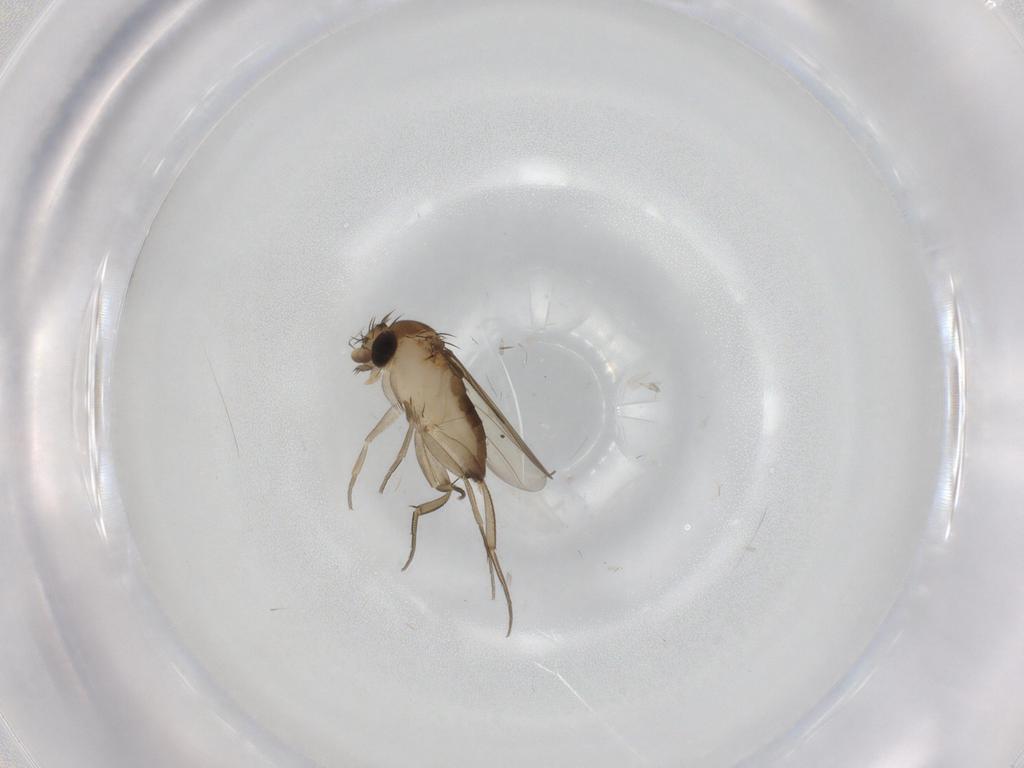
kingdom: Animalia
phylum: Arthropoda
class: Insecta
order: Diptera
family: Phoridae
